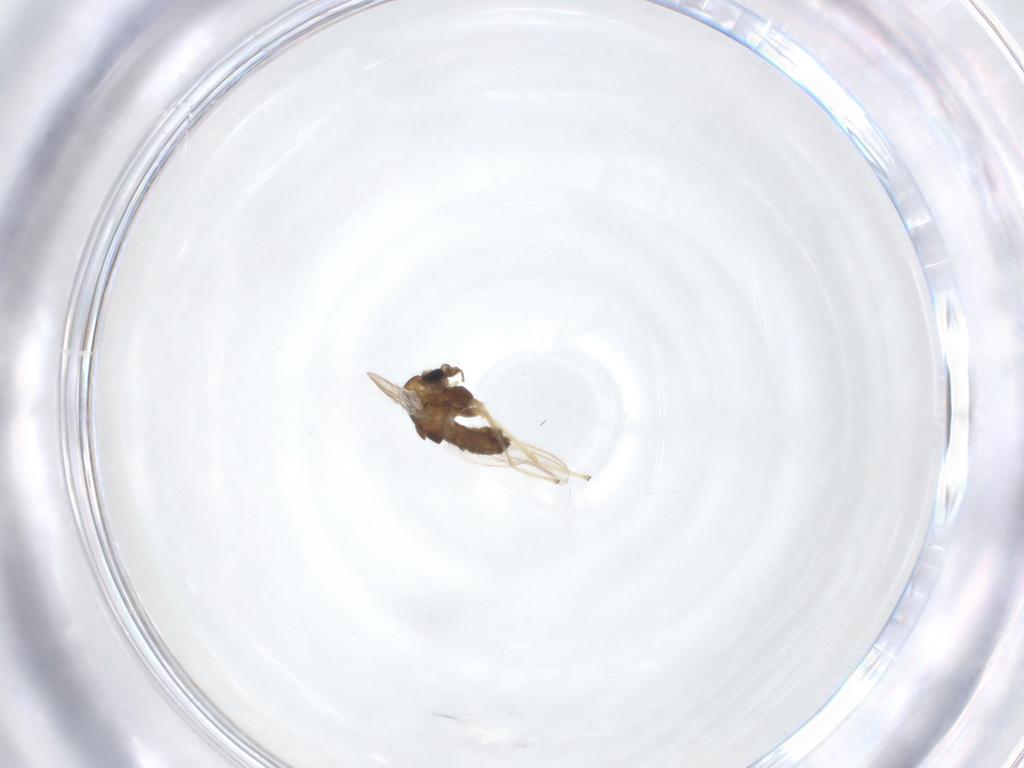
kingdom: Animalia
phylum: Arthropoda
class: Insecta
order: Diptera
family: Chironomidae
